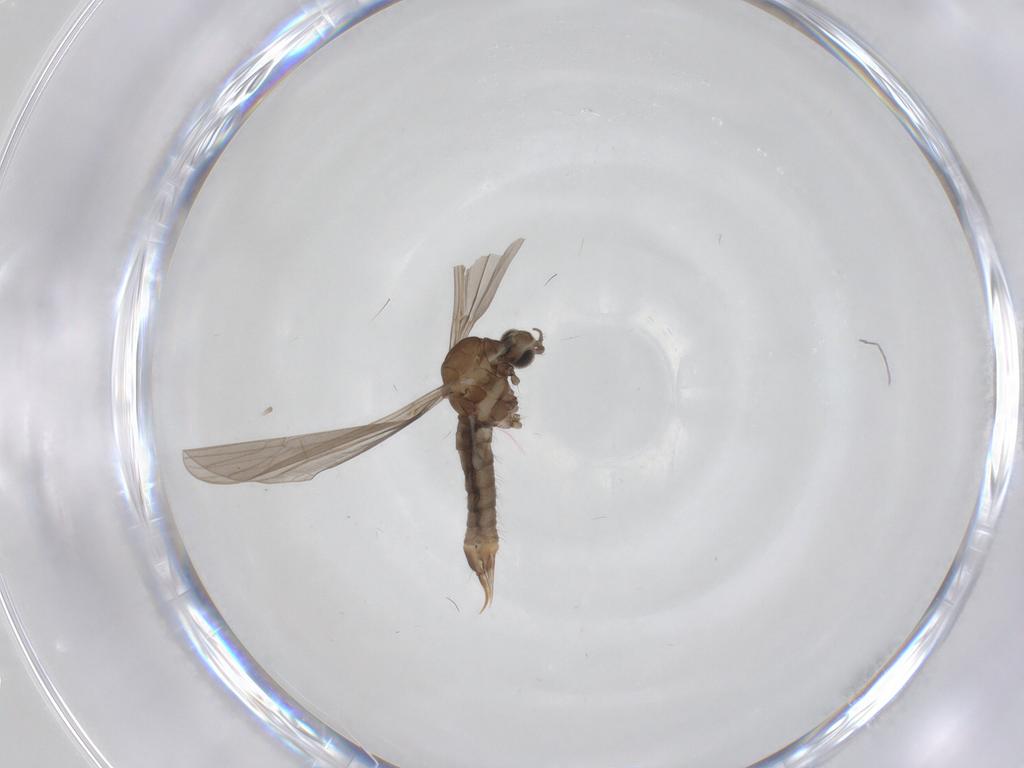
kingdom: Animalia
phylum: Arthropoda
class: Insecta
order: Diptera
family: Limoniidae
